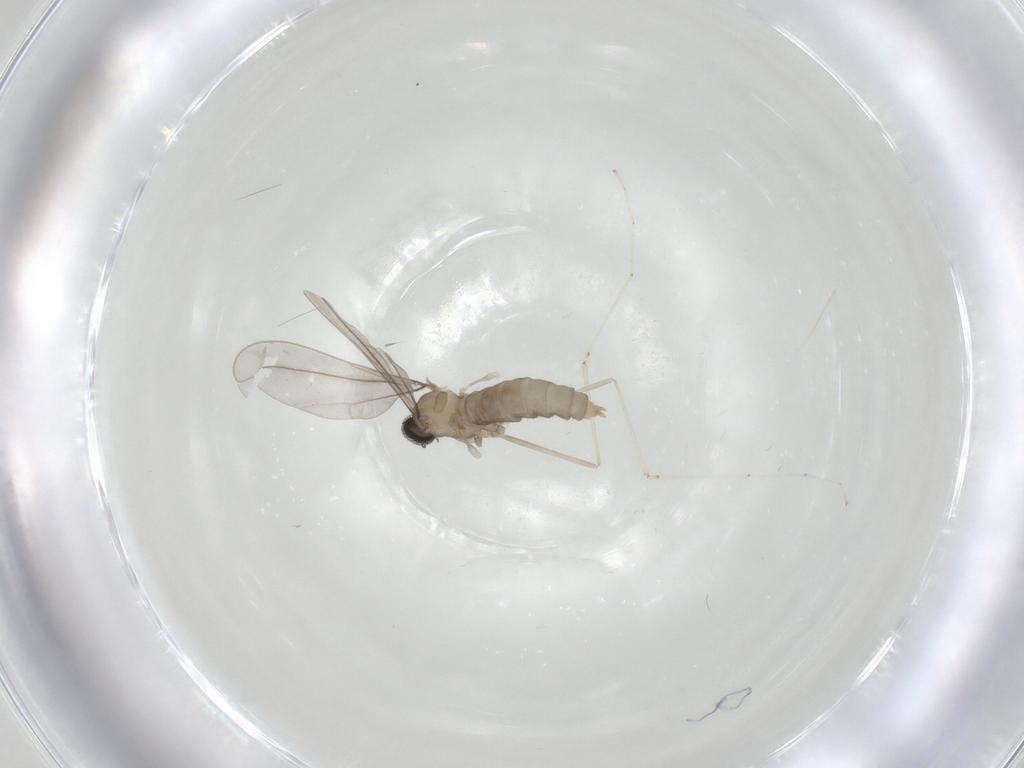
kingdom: Animalia
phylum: Arthropoda
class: Insecta
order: Diptera
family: Cecidomyiidae
